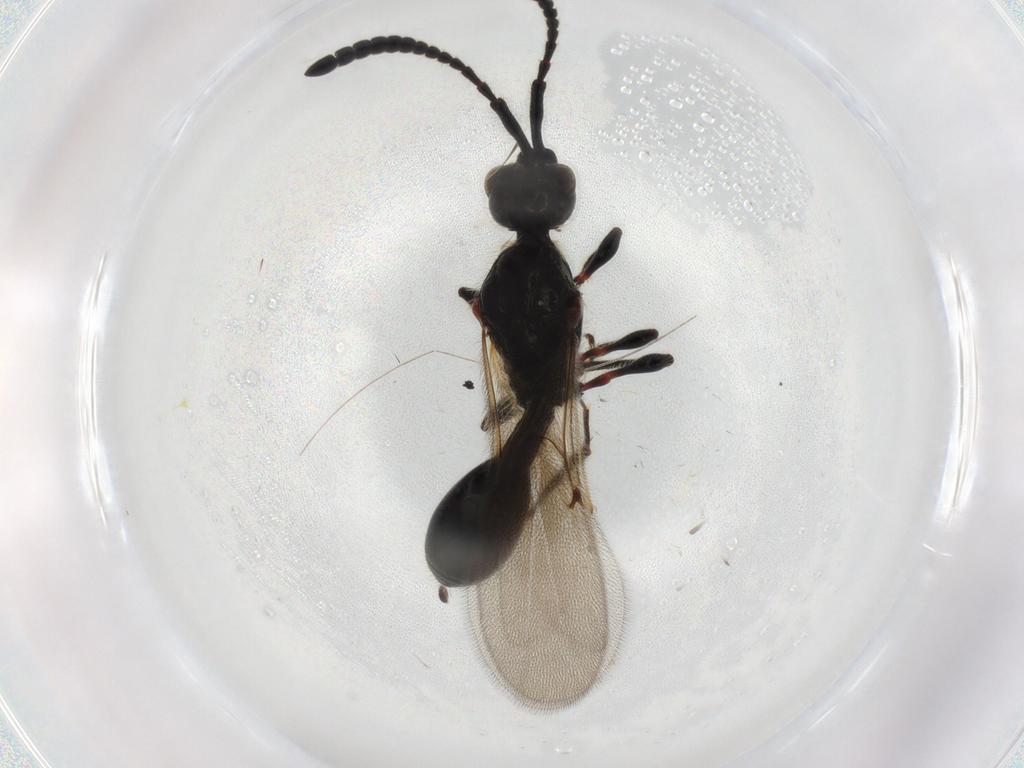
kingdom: Animalia
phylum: Arthropoda
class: Insecta
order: Hymenoptera
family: Diapriidae
